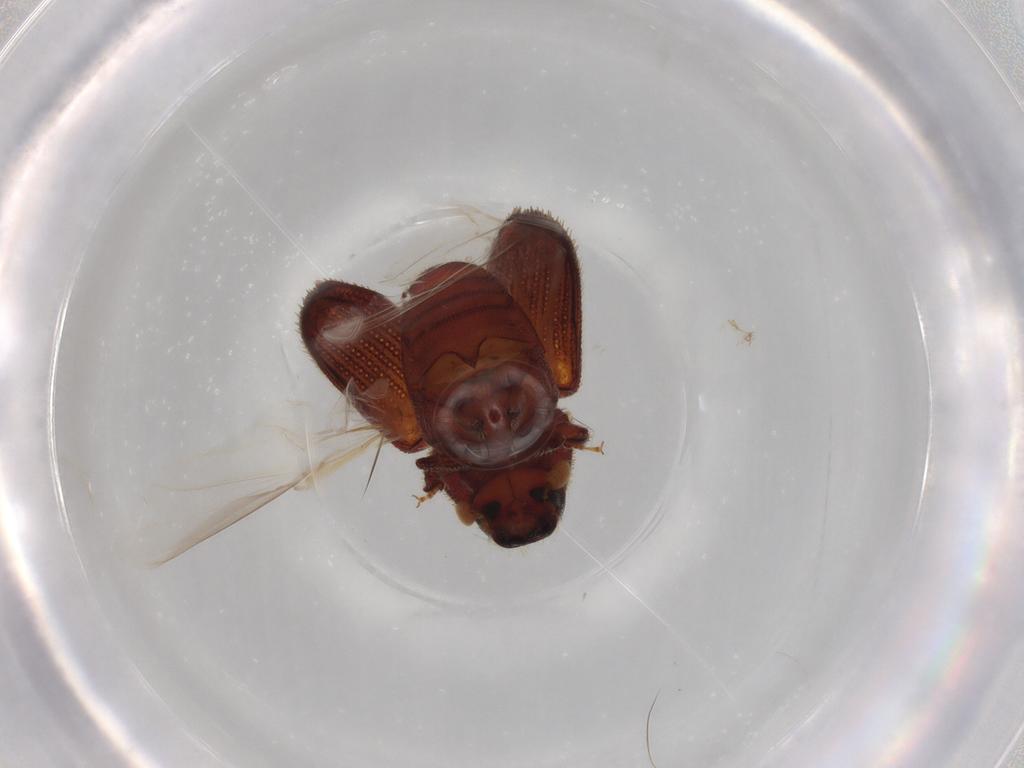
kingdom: Animalia
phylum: Arthropoda
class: Insecta
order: Coleoptera
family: Curculionidae
